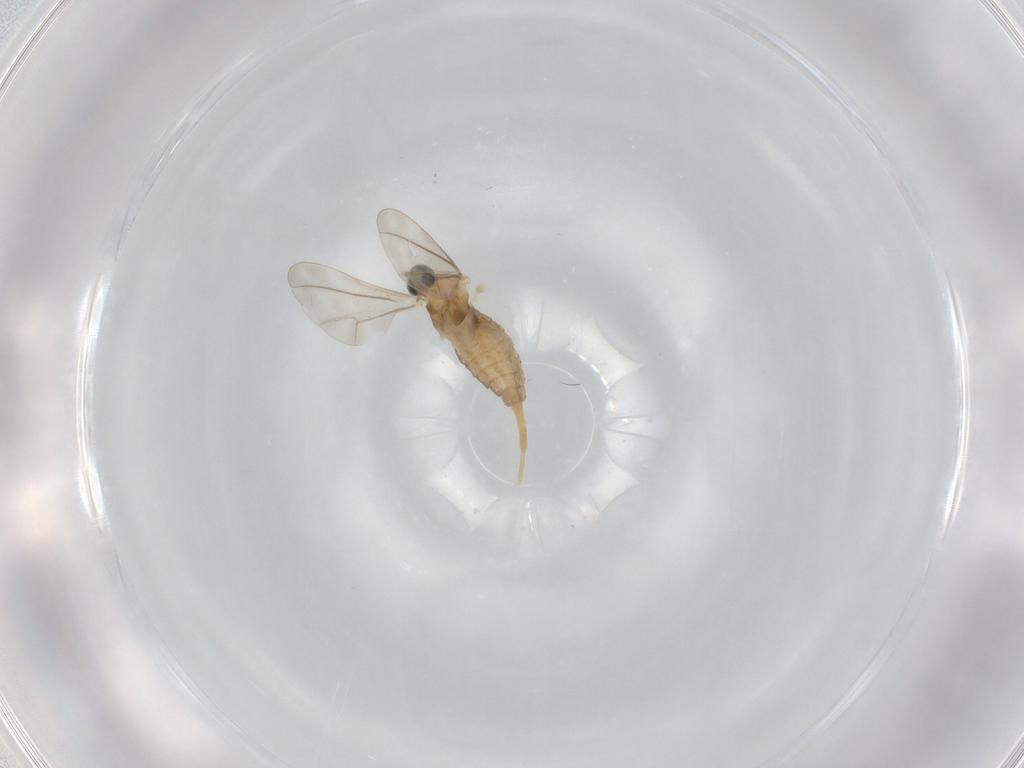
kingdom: Animalia
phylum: Arthropoda
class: Insecta
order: Diptera
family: Cecidomyiidae
